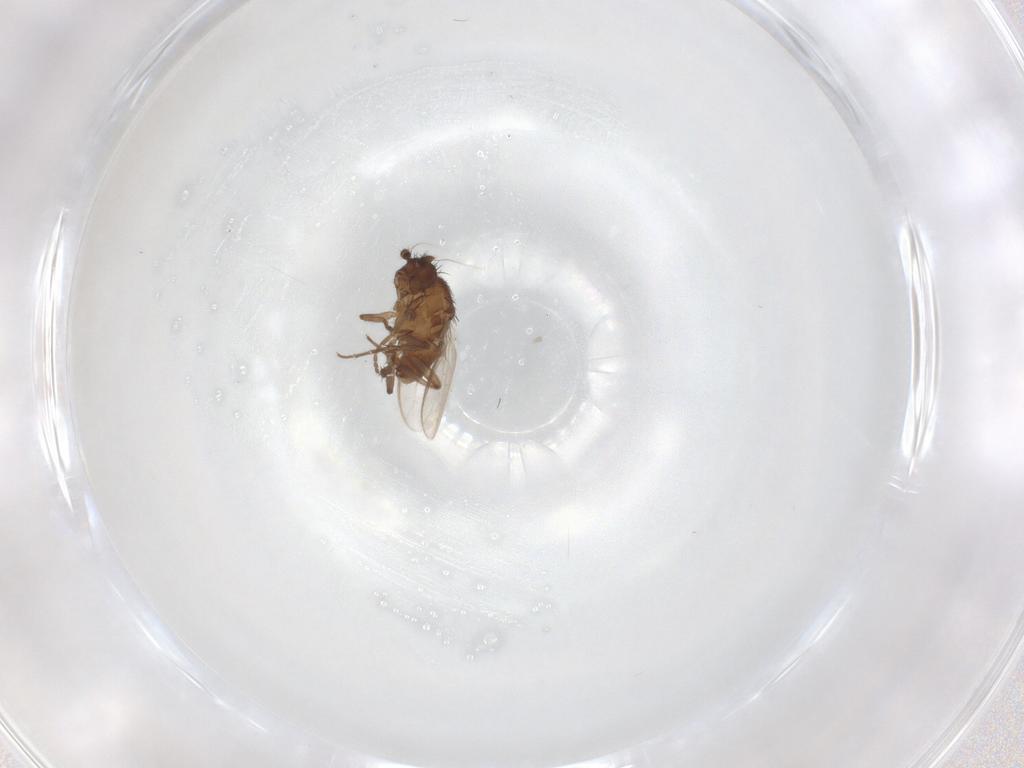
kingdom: Animalia
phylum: Arthropoda
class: Insecta
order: Diptera
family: Sphaeroceridae
